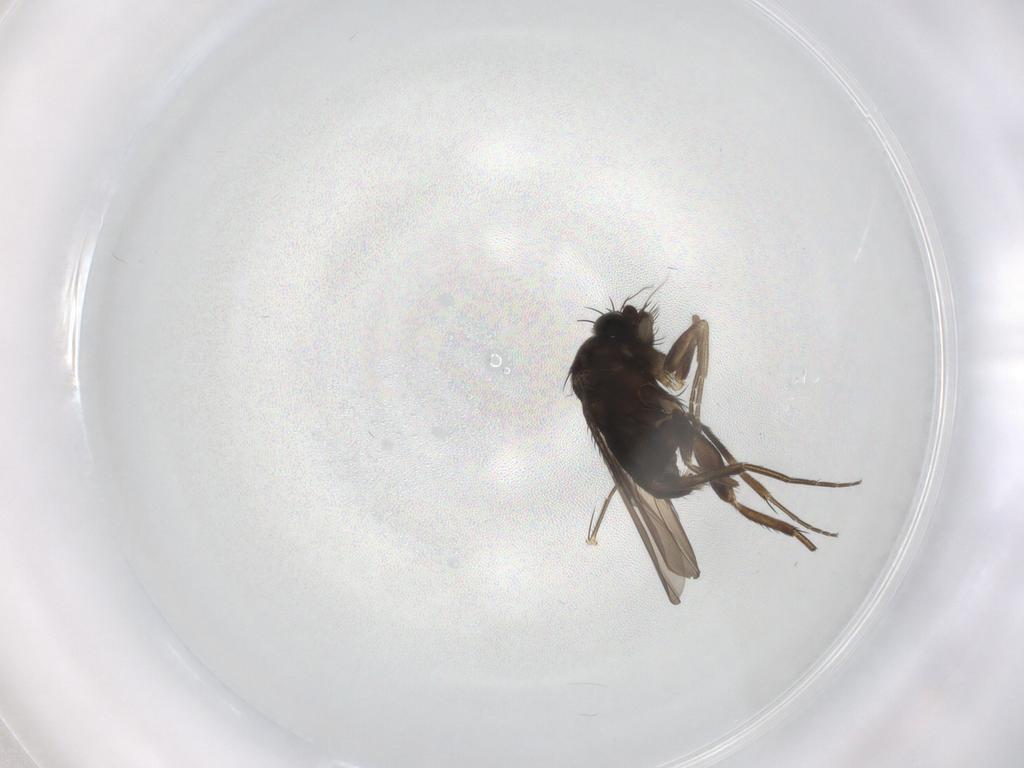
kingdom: Animalia
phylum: Arthropoda
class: Insecta
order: Diptera
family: Phoridae
